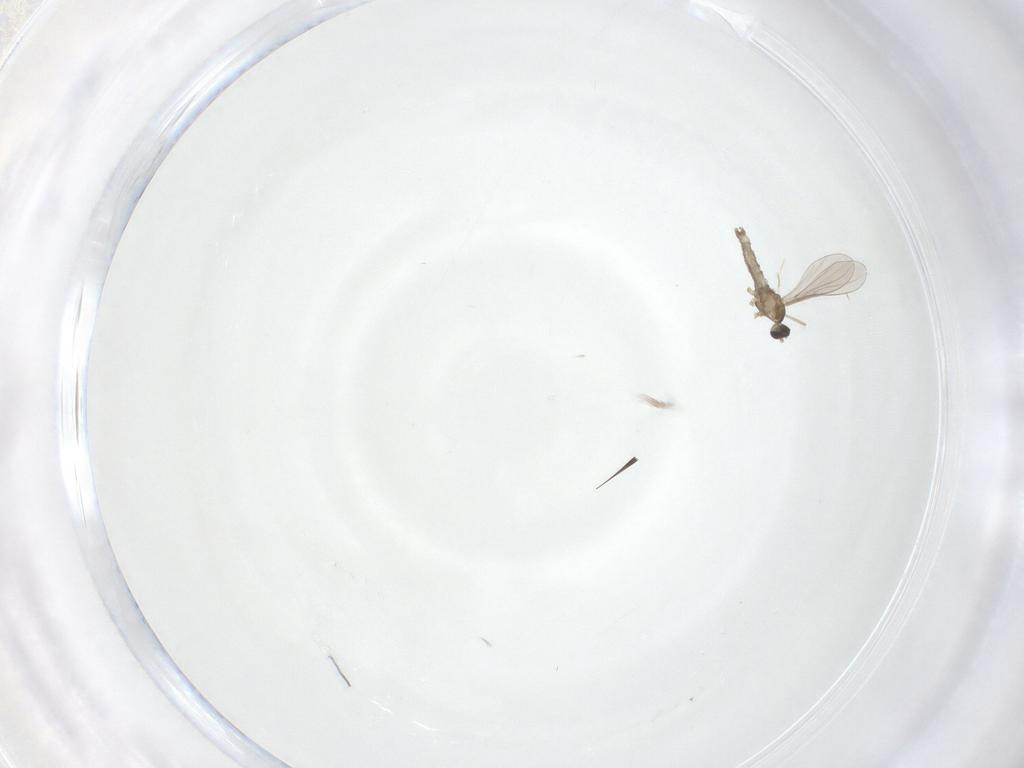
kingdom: Animalia
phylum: Arthropoda
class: Insecta
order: Diptera
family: Cecidomyiidae
